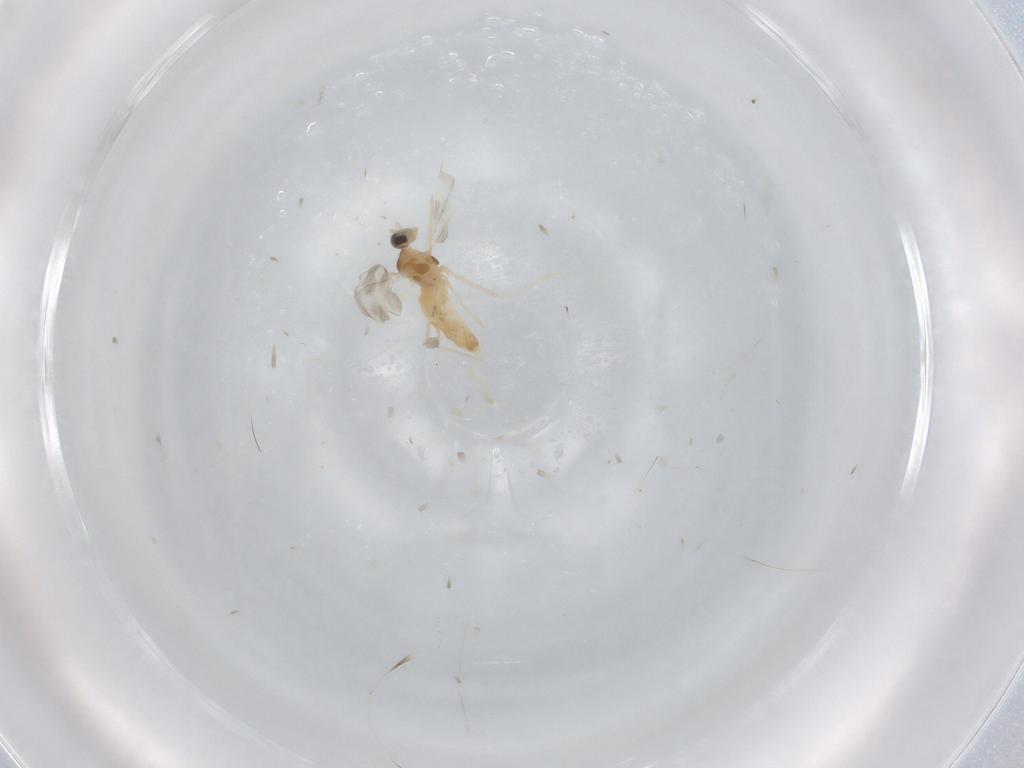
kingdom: Animalia
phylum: Arthropoda
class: Insecta
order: Diptera
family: Cecidomyiidae
